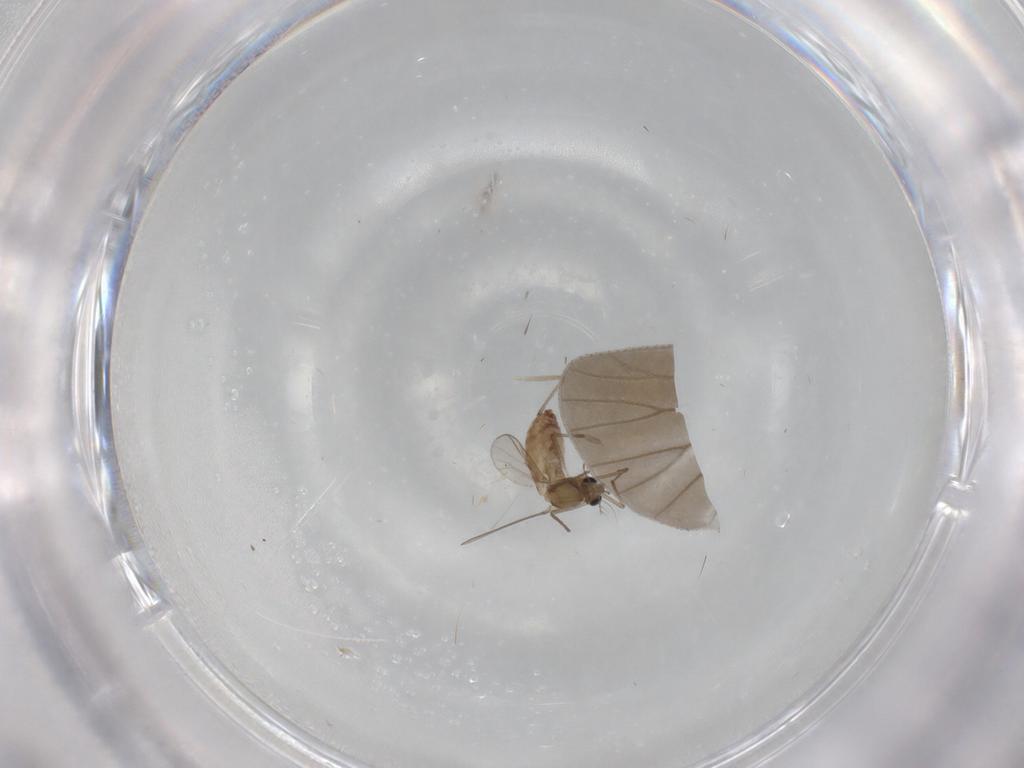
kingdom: Animalia
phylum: Arthropoda
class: Insecta
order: Diptera
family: Chironomidae
